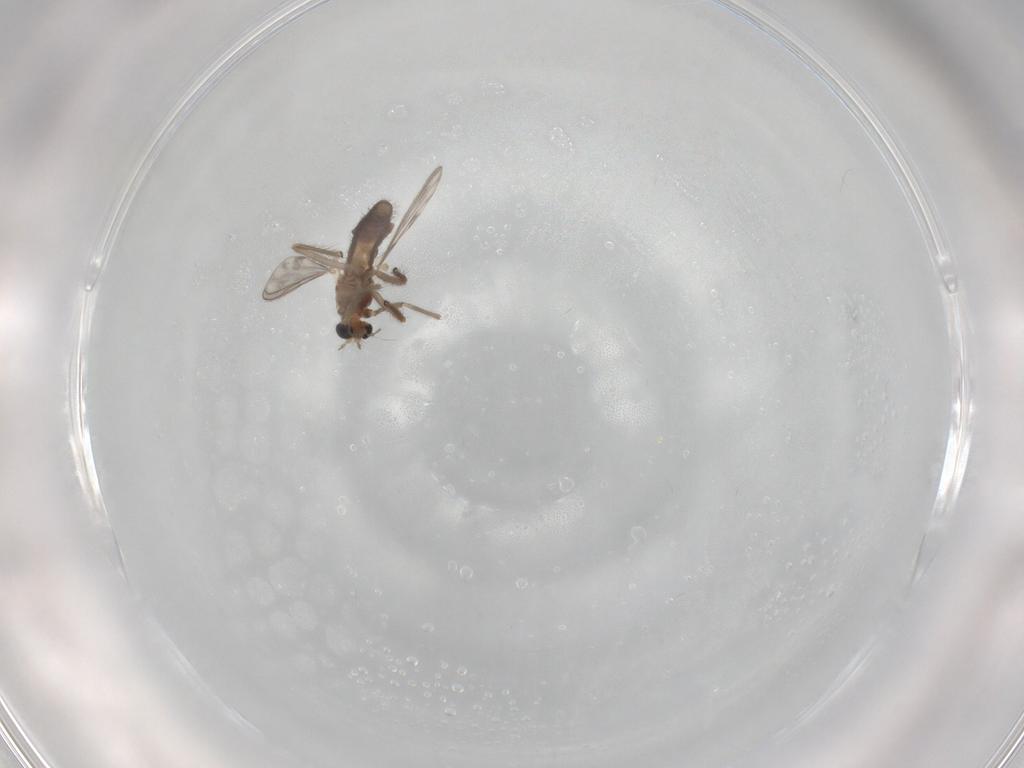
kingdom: Animalia
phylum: Arthropoda
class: Insecta
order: Diptera
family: Chironomidae
